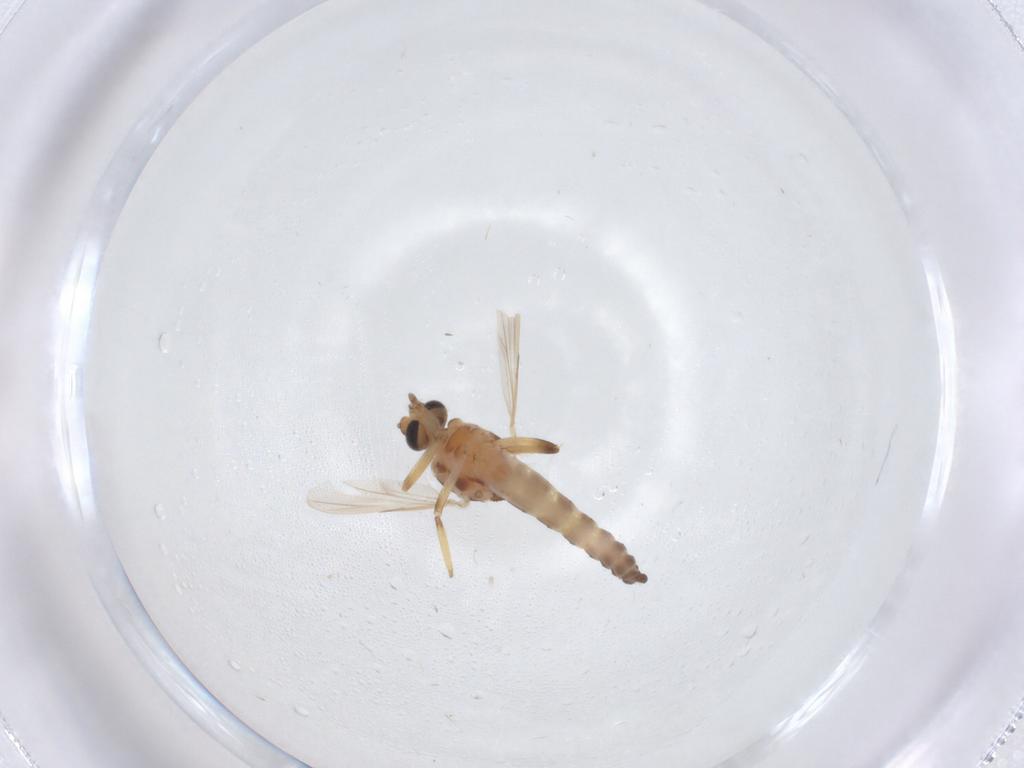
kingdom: Animalia
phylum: Arthropoda
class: Insecta
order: Diptera
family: Ceratopogonidae
